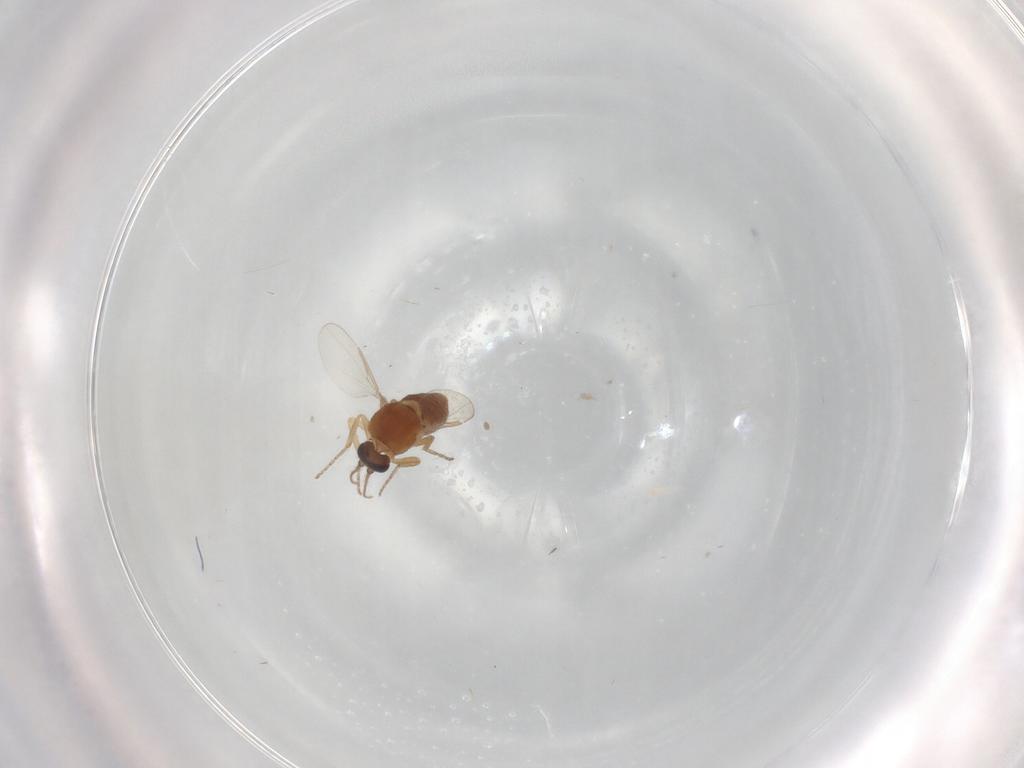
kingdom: Animalia
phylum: Arthropoda
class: Insecta
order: Diptera
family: Ceratopogonidae
